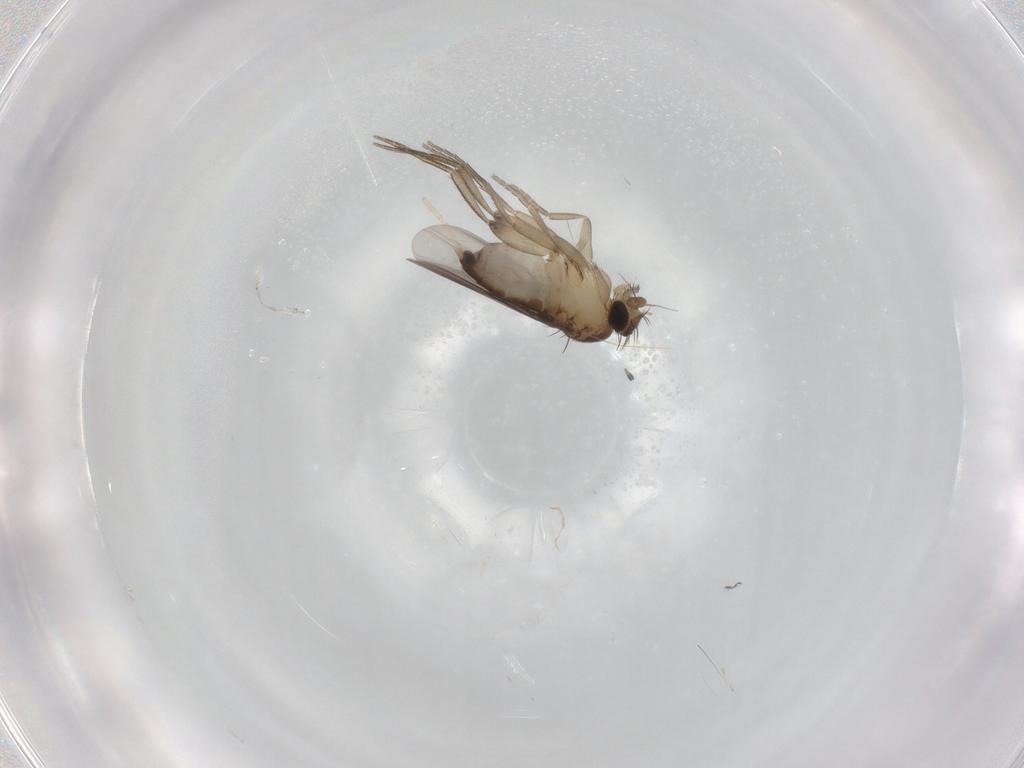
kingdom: Animalia
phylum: Arthropoda
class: Insecta
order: Diptera
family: Phoridae
